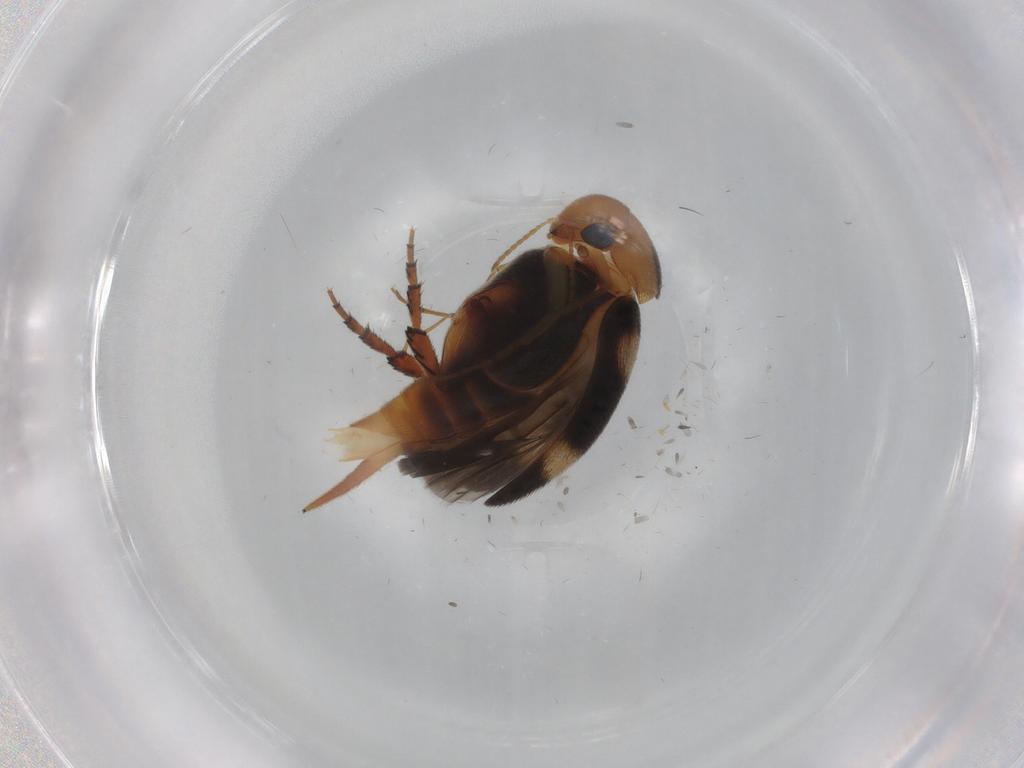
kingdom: Animalia
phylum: Arthropoda
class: Insecta
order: Coleoptera
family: Mordellidae
